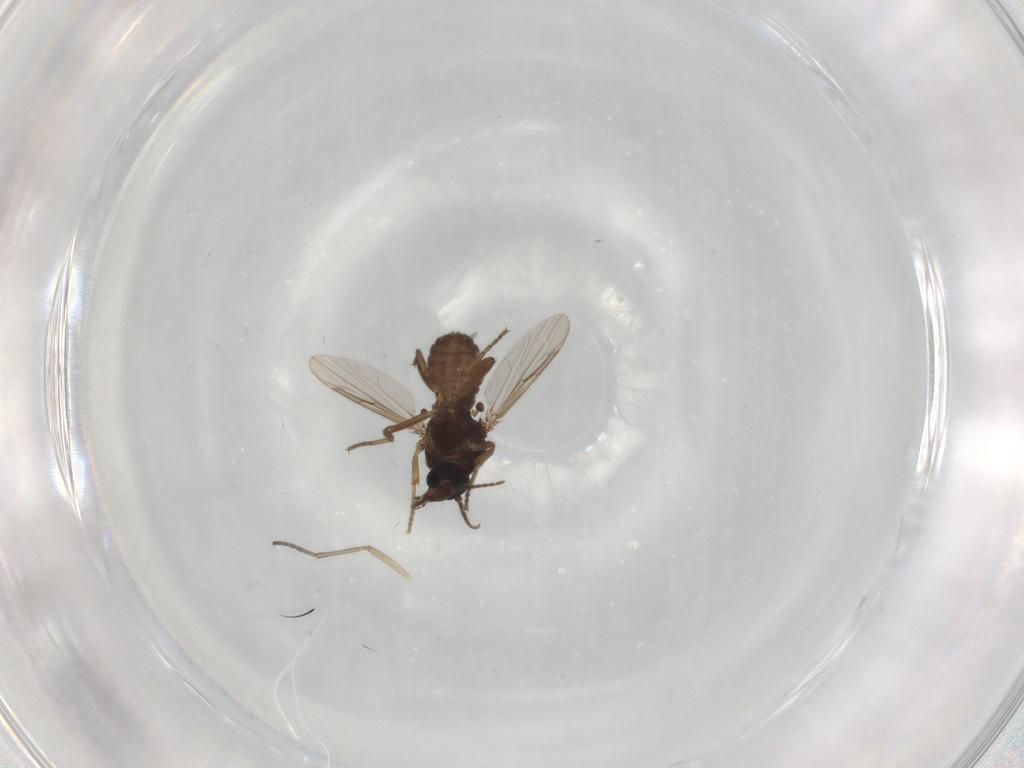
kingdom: Animalia
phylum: Arthropoda
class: Insecta
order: Diptera
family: Ceratopogonidae
